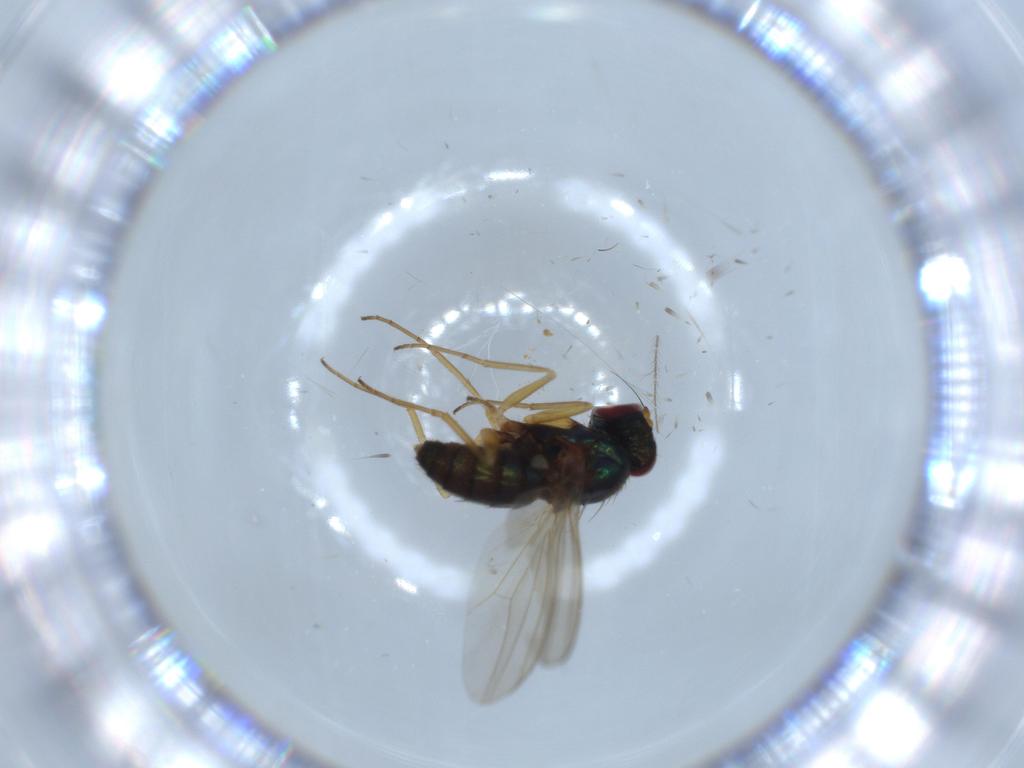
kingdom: Animalia
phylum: Arthropoda
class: Insecta
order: Diptera
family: Dolichopodidae
